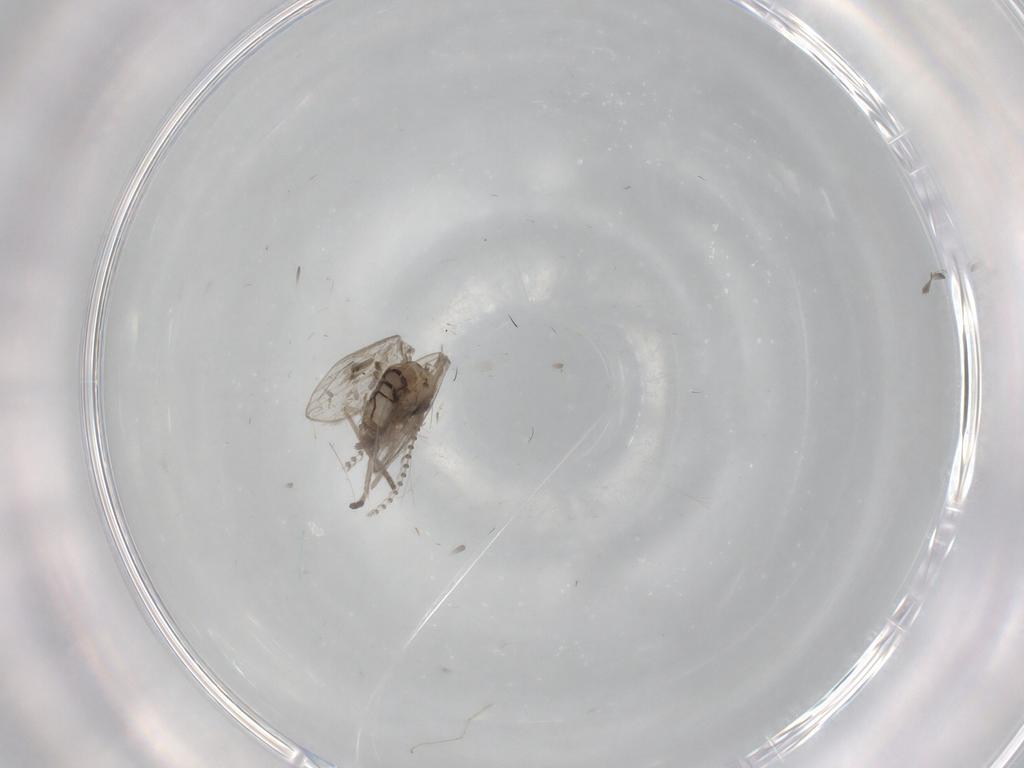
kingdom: Animalia
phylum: Arthropoda
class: Insecta
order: Diptera
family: Psychodidae
